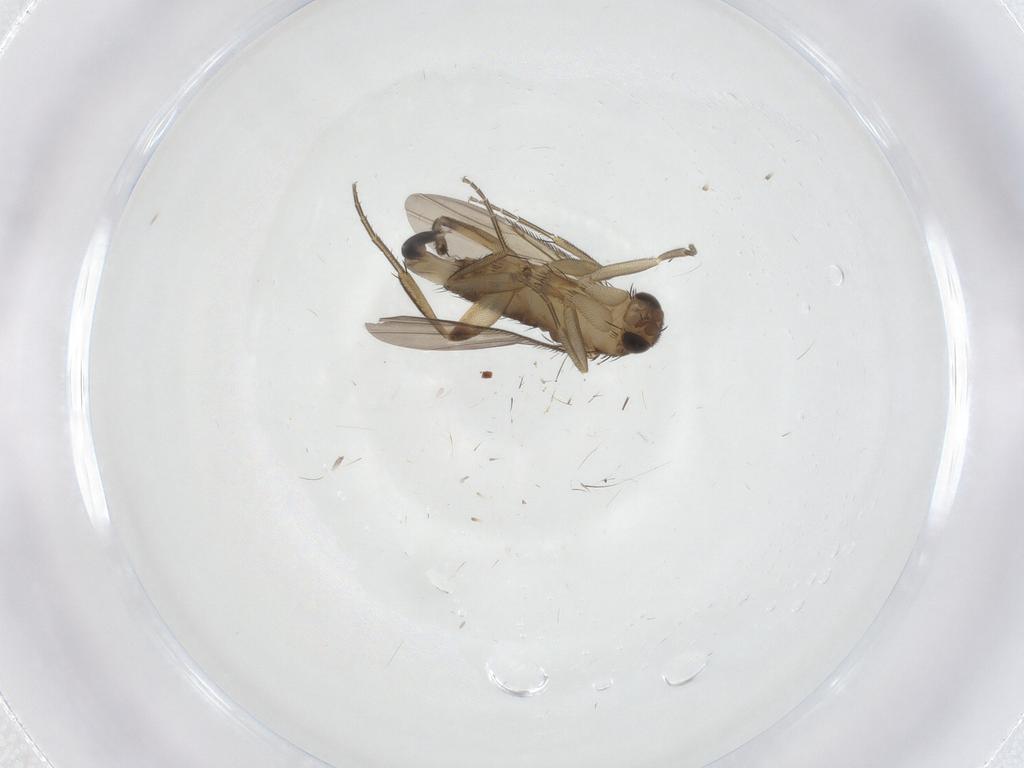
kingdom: Animalia
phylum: Arthropoda
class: Insecta
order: Diptera
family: Phoridae
